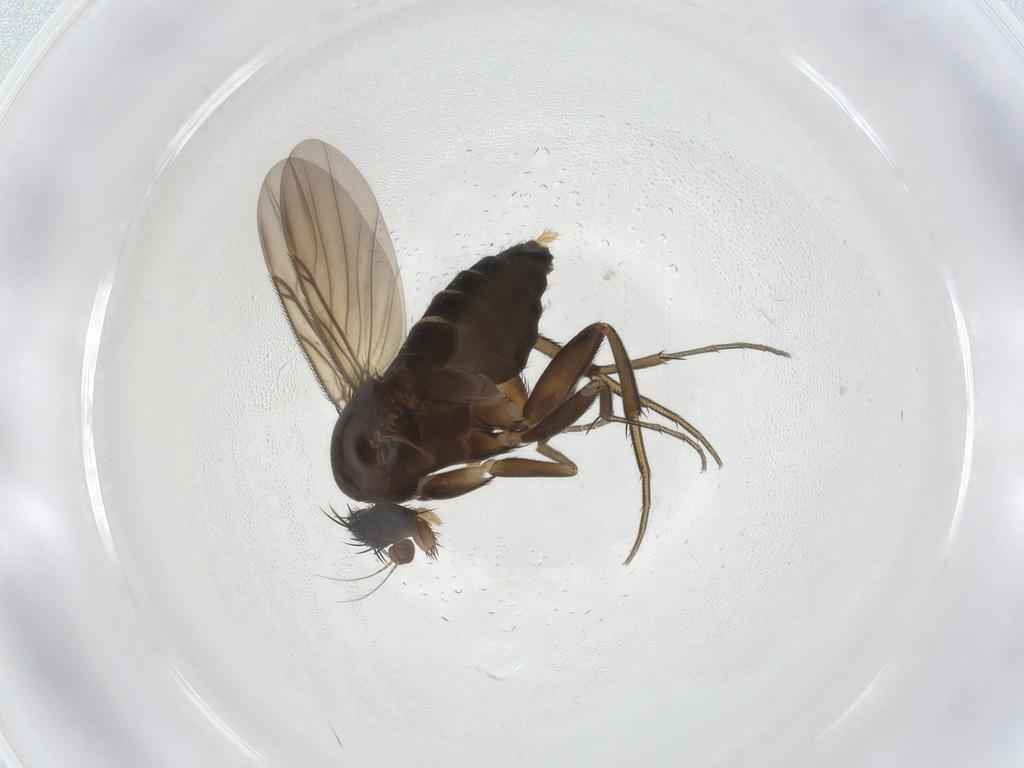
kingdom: Animalia
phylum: Arthropoda
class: Insecta
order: Diptera
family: Phoridae
